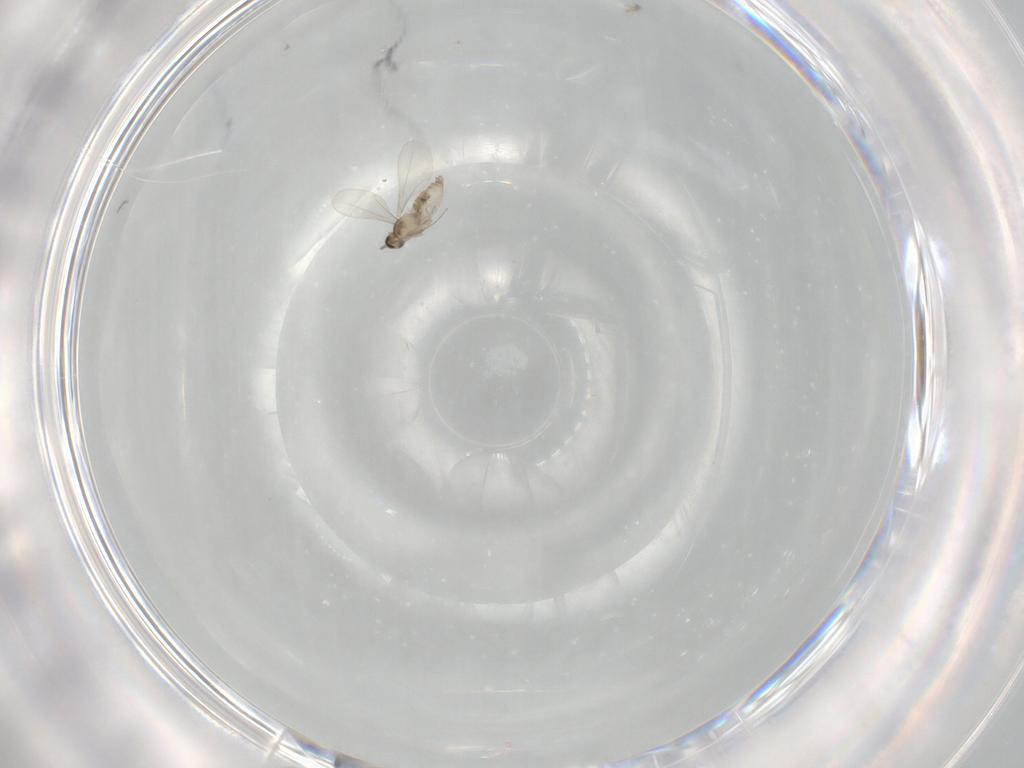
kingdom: Animalia
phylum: Arthropoda
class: Insecta
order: Diptera
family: Cecidomyiidae
